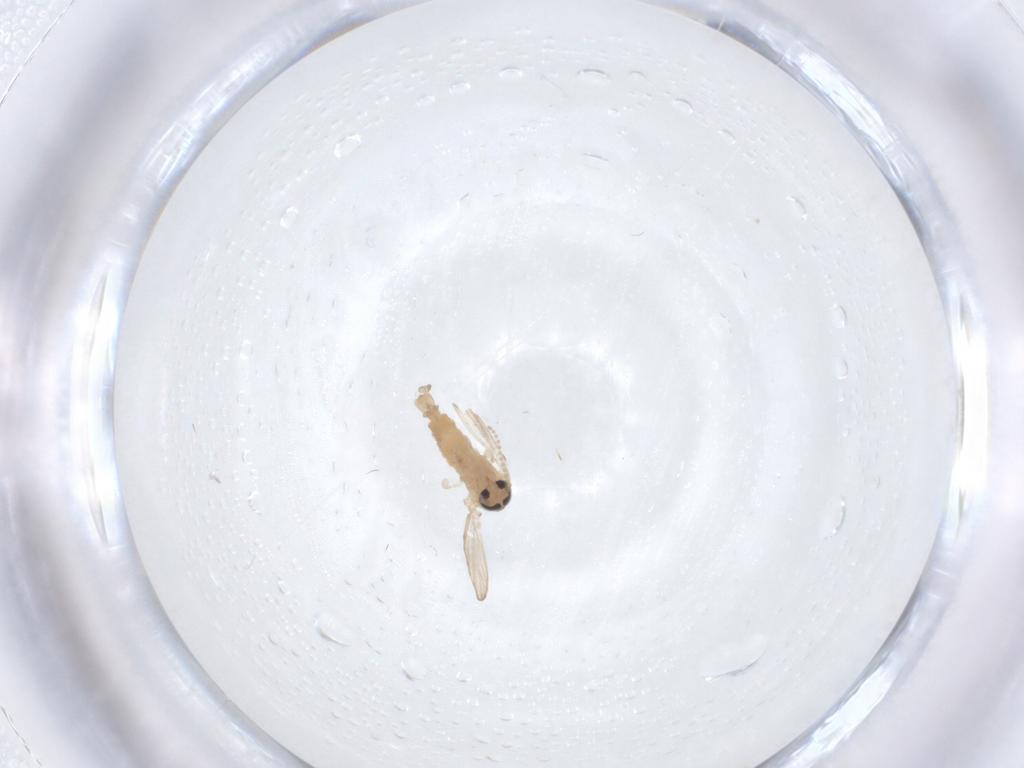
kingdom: Animalia
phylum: Arthropoda
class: Insecta
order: Diptera
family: Psychodidae
